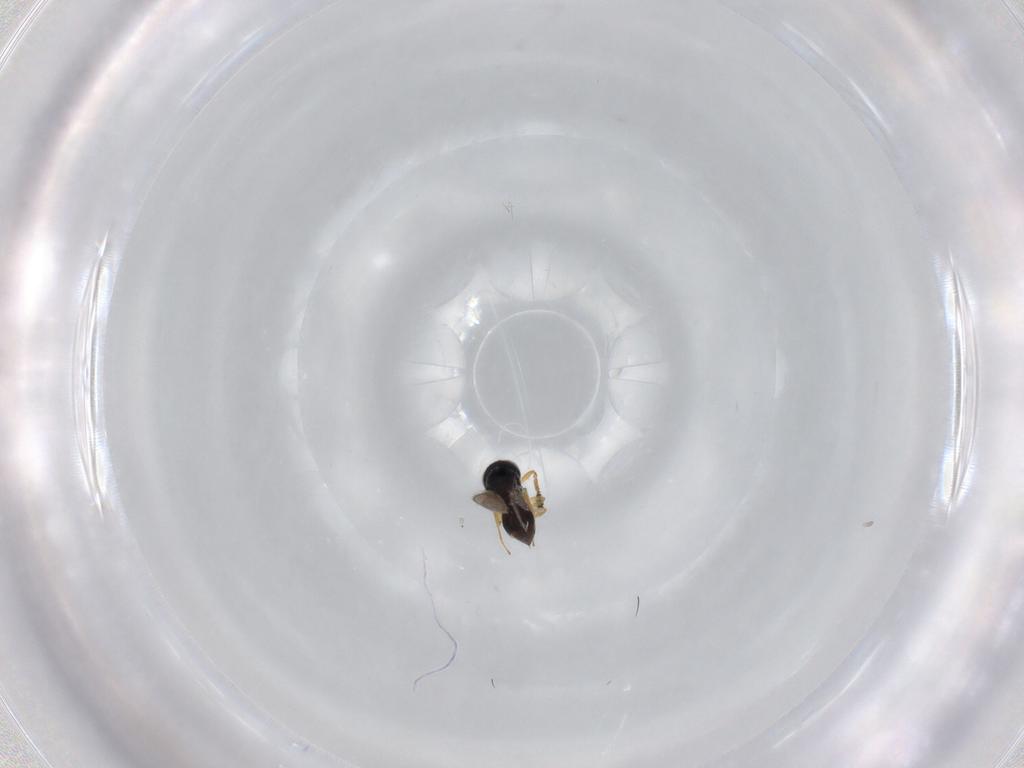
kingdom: Animalia
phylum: Arthropoda
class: Insecta
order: Hymenoptera
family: Scelionidae
